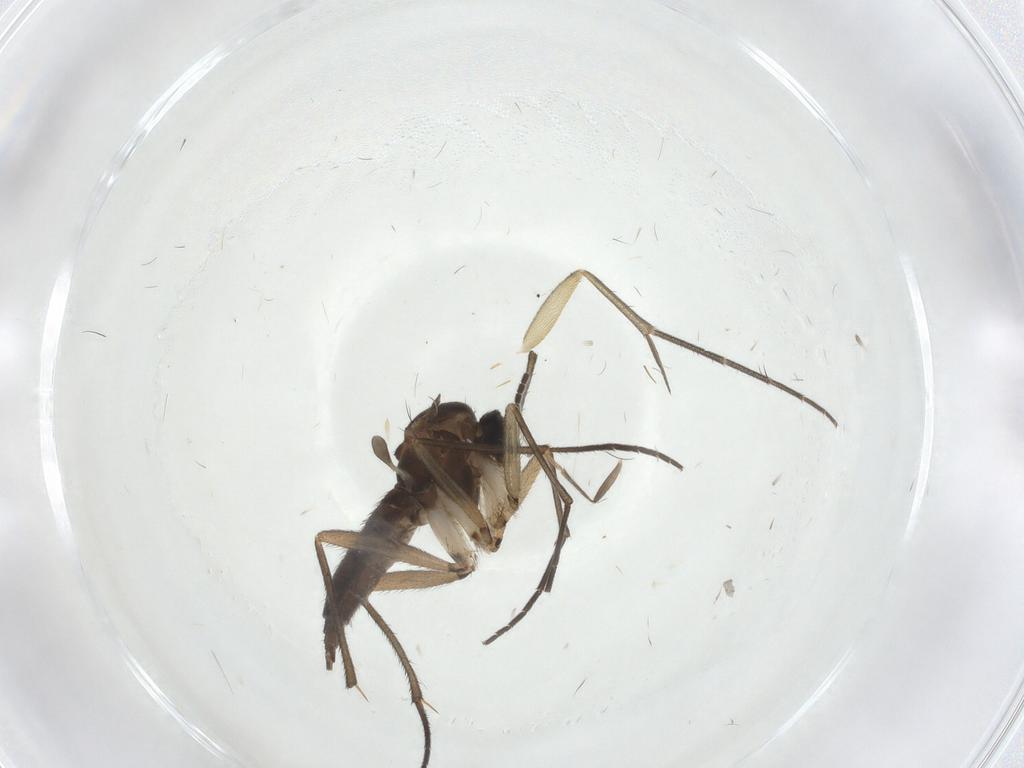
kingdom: Animalia
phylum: Arthropoda
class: Insecta
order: Diptera
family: Sciaridae
